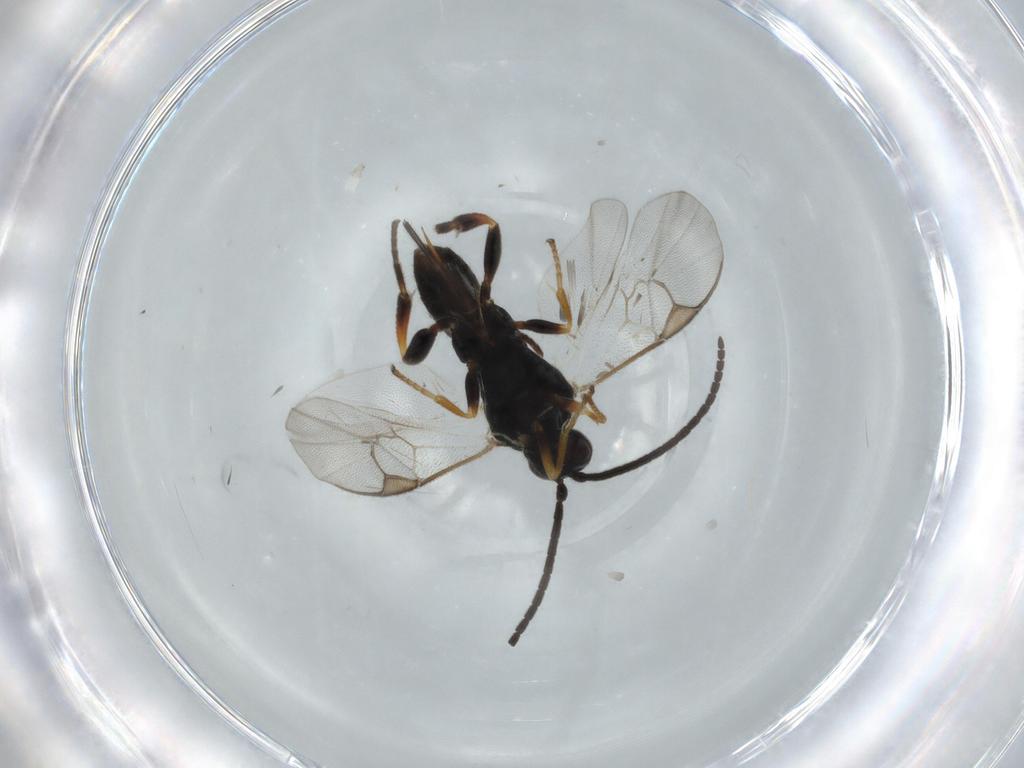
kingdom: Animalia
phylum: Arthropoda
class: Insecta
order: Hymenoptera
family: Braconidae
